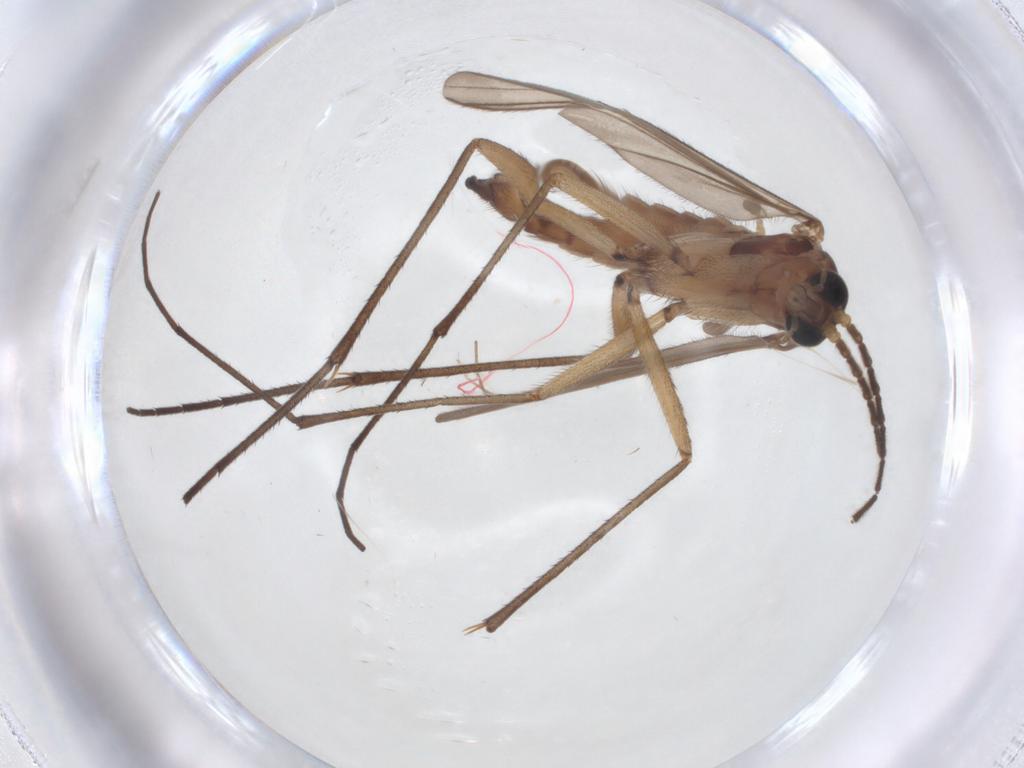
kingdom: Animalia
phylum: Arthropoda
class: Insecta
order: Diptera
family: Sciaridae
